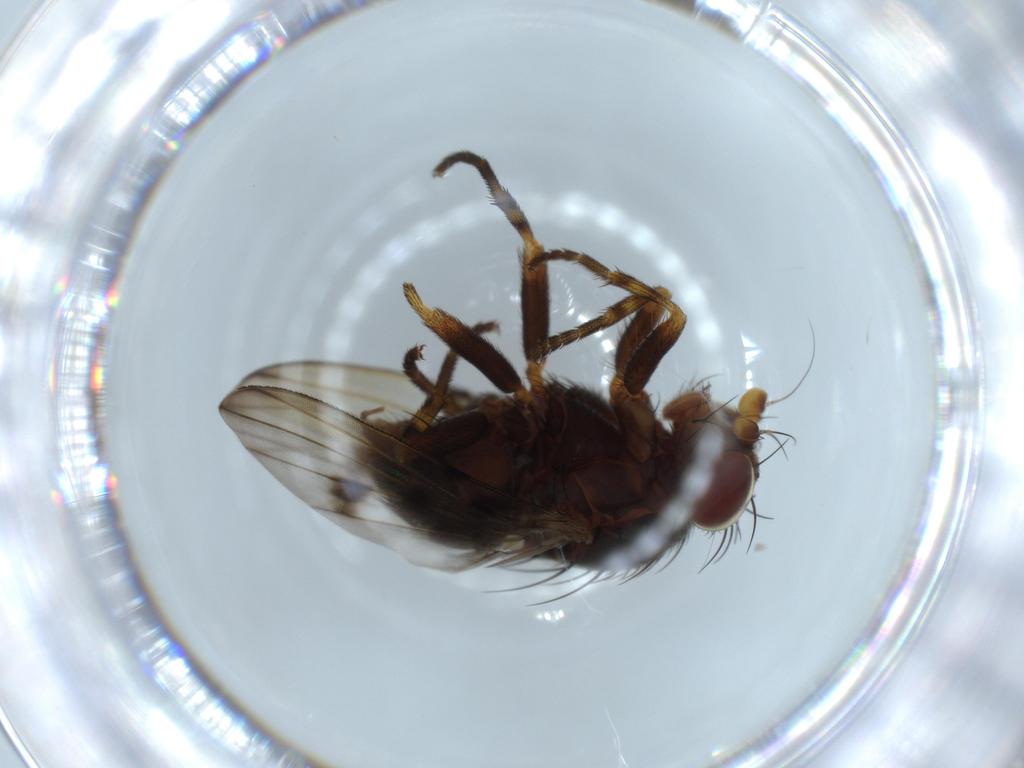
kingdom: Animalia
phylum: Arthropoda
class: Insecta
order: Diptera
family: Odiniidae
